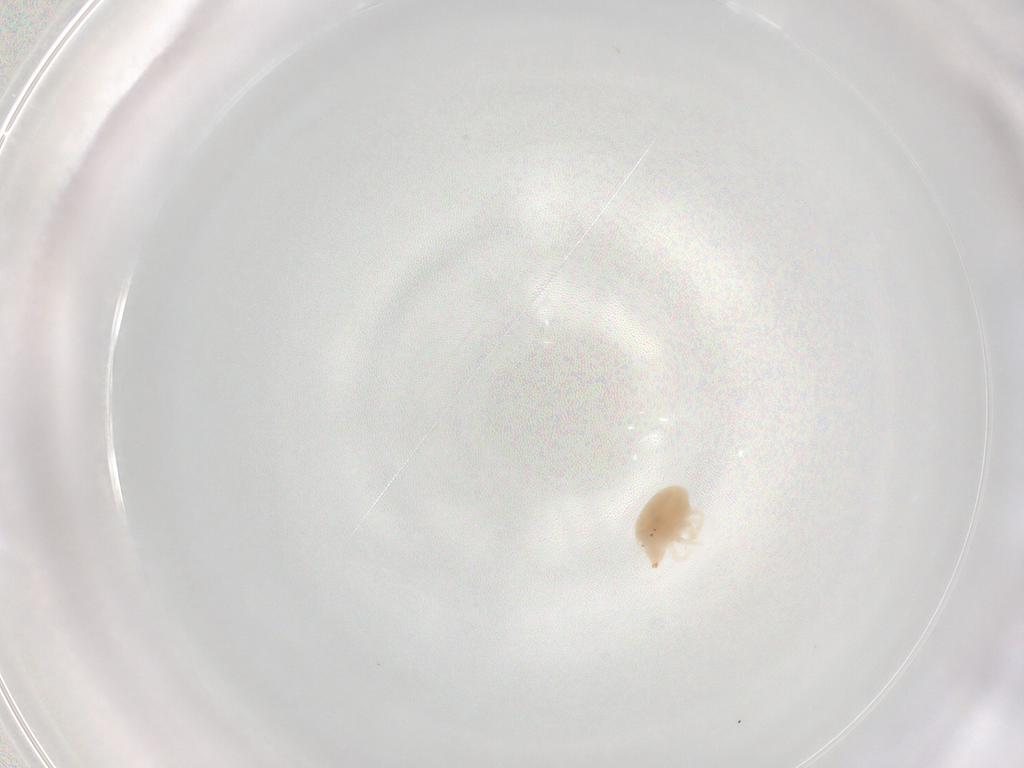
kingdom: Animalia
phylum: Arthropoda
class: Arachnida
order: Trombidiformes
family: Bdellidae
